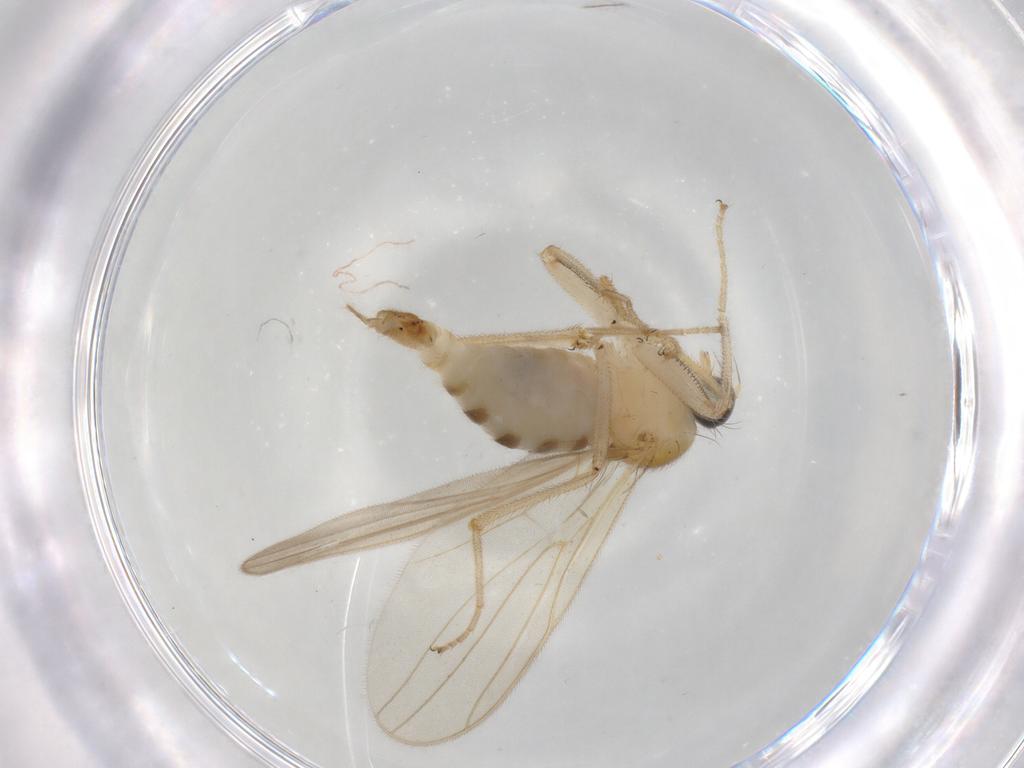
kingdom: Animalia
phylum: Arthropoda
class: Insecta
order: Diptera
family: Hybotidae
